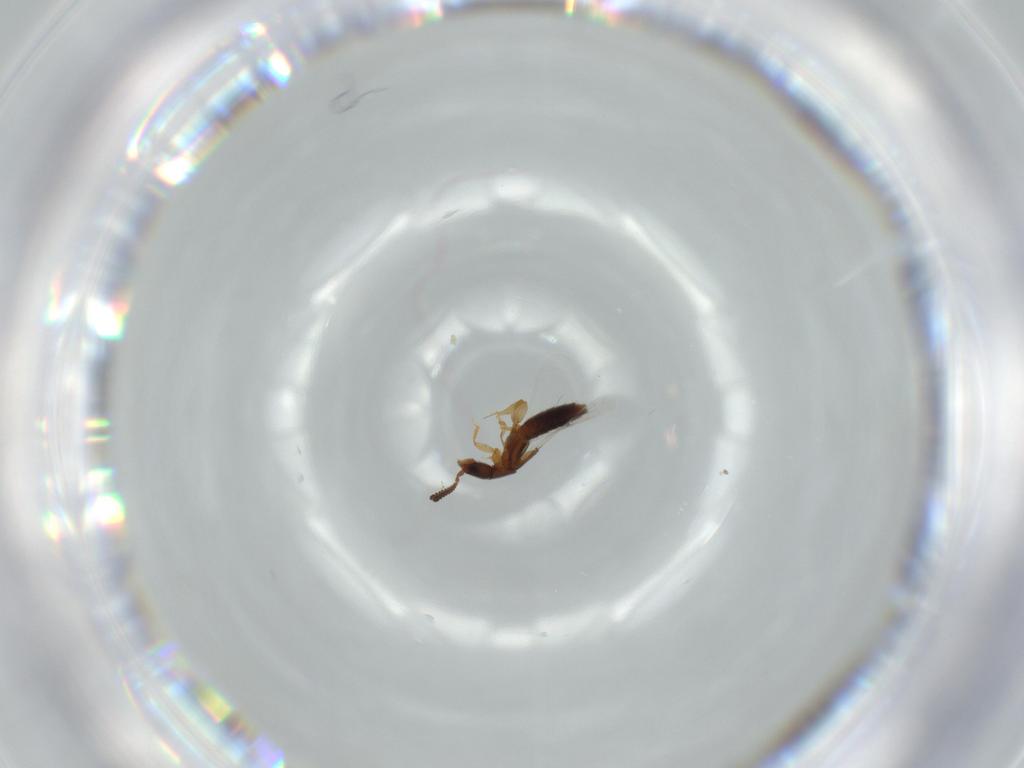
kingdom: Animalia
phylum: Arthropoda
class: Insecta
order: Coleoptera
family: Staphylinidae
